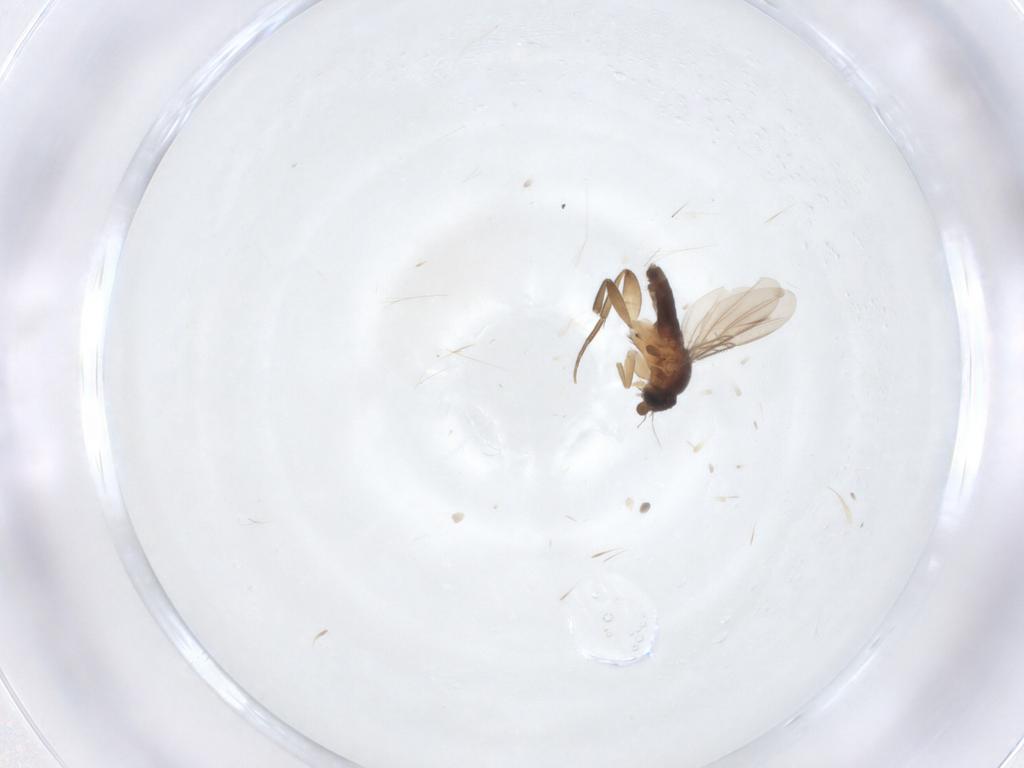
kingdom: Animalia
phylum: Arthropoda
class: Insecta
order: Diptera
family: Phoridae
